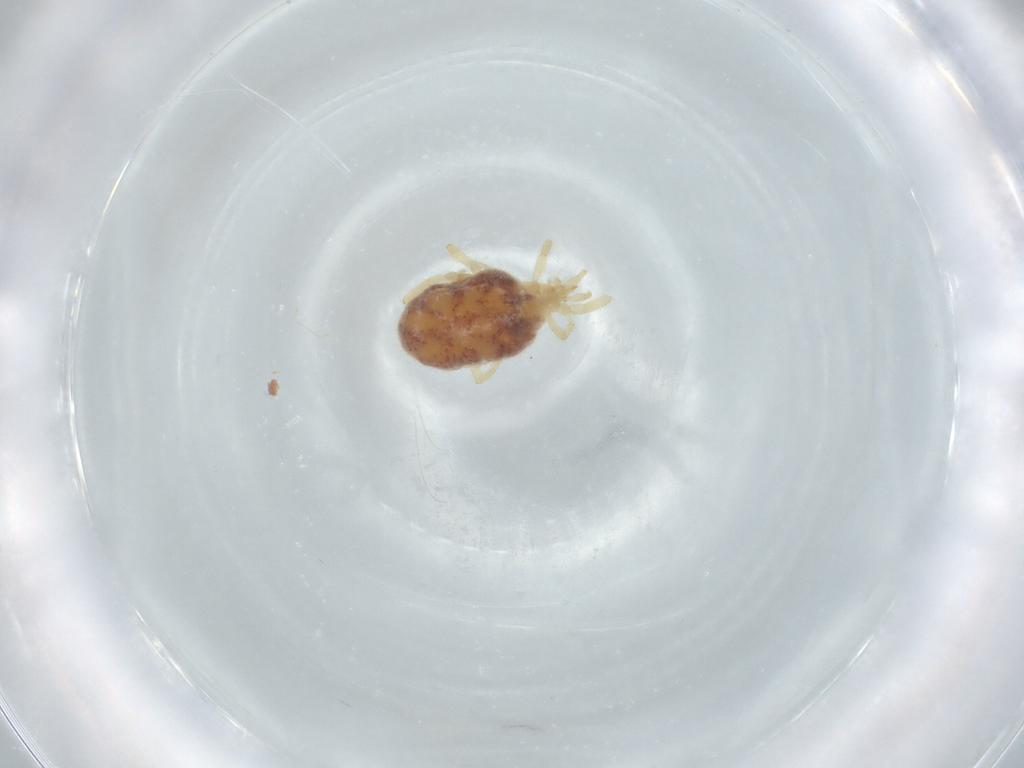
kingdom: Animalia
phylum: Arthropoda
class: Arachnida
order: Trombidiformes
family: Erythraeidae
